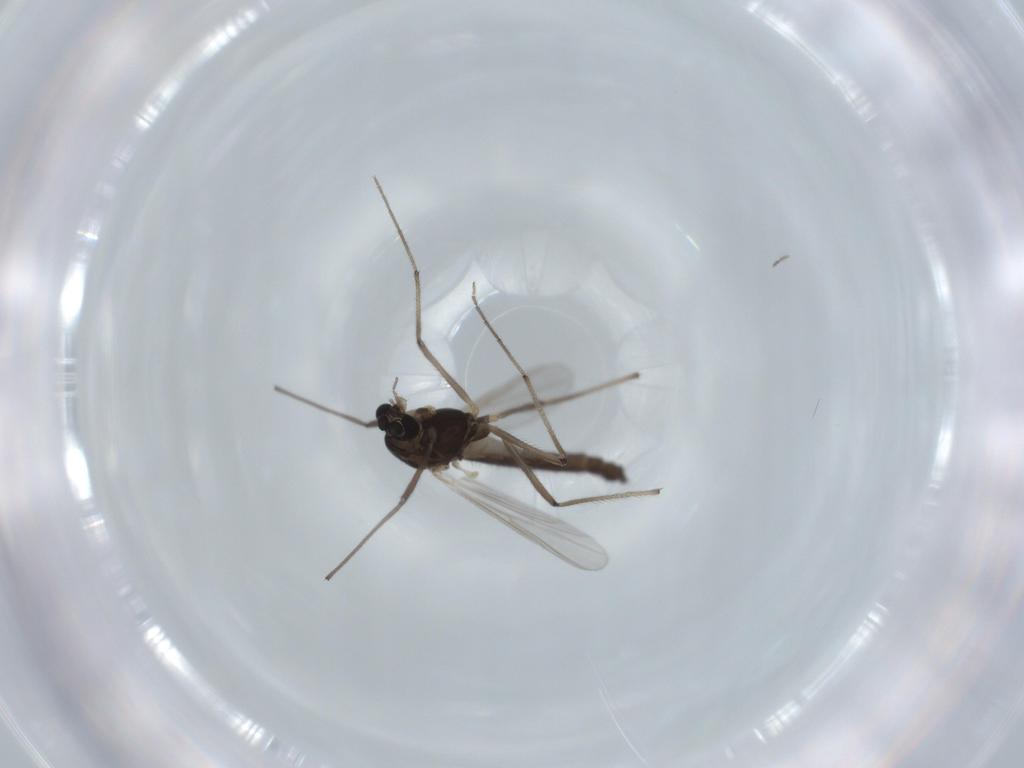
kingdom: Animalia
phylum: Arthropoda
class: Insecta
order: Diptera
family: Chironomidae
